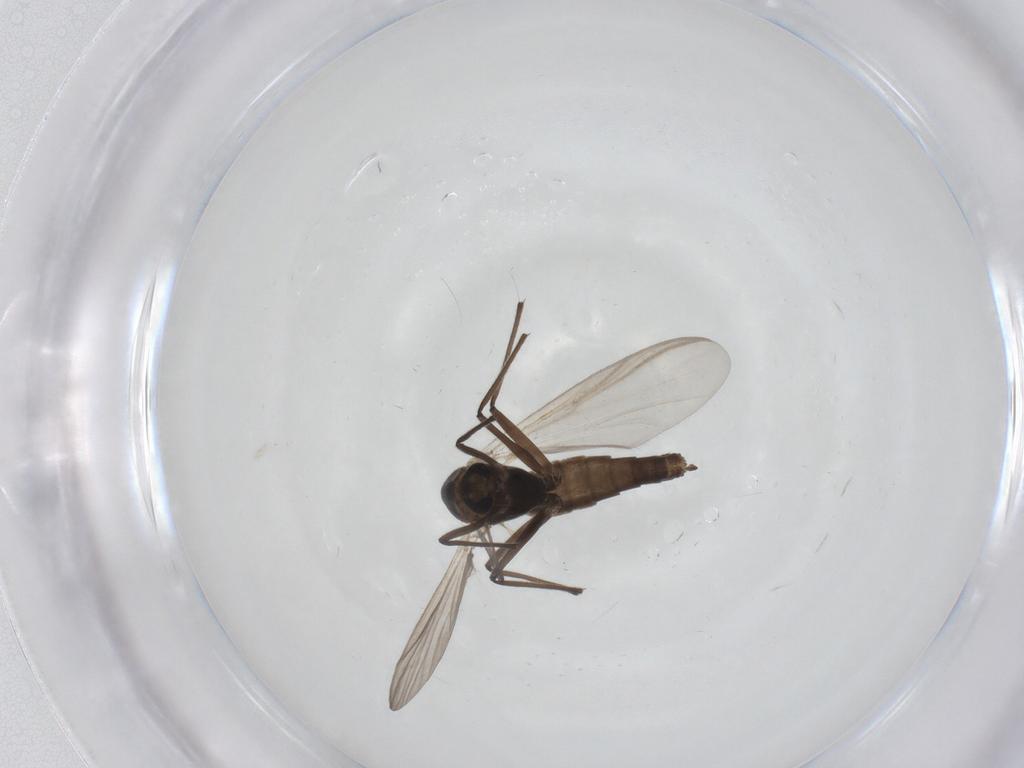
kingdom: Animalia
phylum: Arthropoda
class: Insecta
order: Diptera
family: Chironomidae
